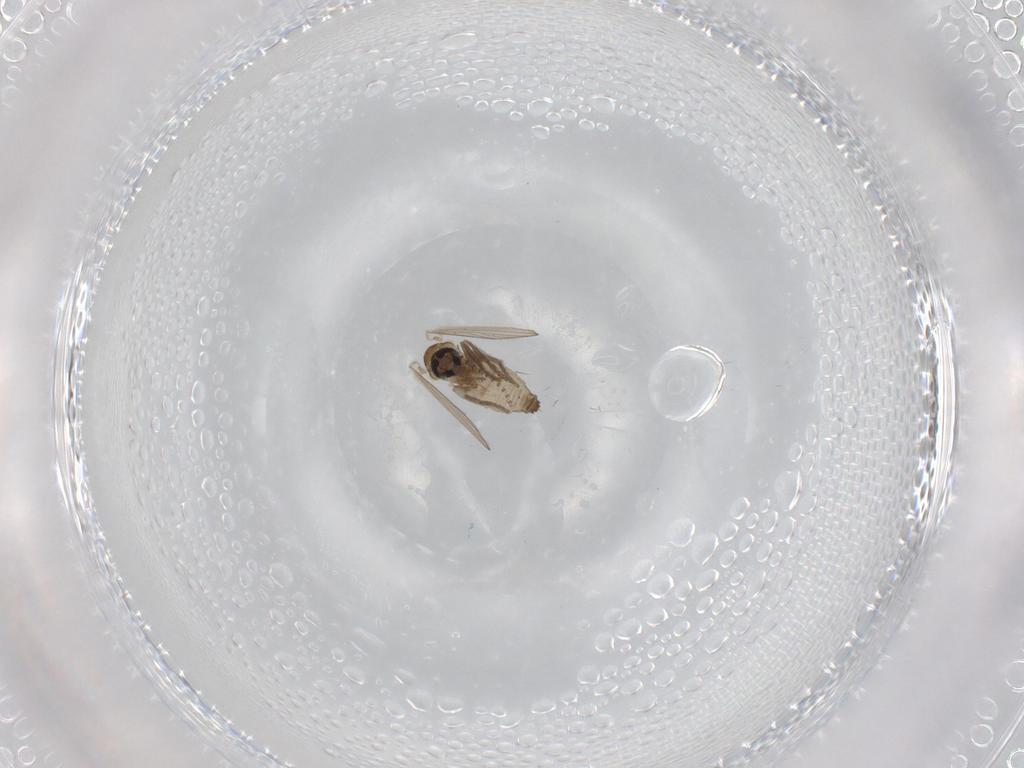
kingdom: Animalia
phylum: Arthropoda
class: Insecta
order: Diptera
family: Psychodidae
